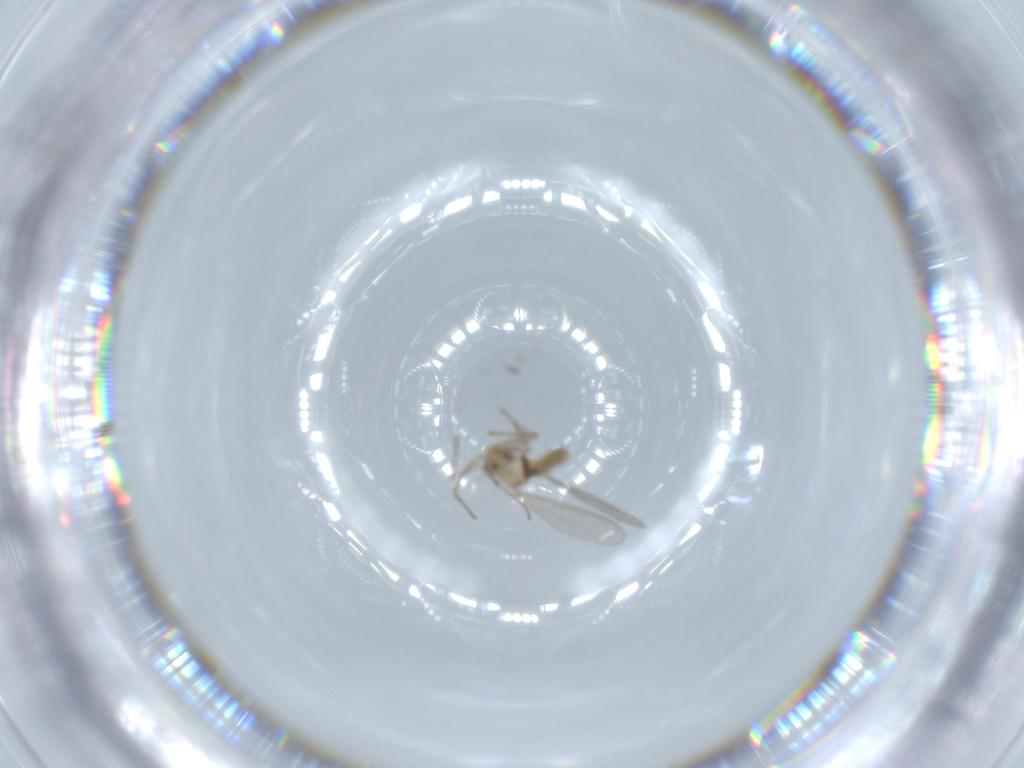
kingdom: Animalia
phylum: Arthropoda
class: Insecta
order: Diptera
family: Chironomidae
